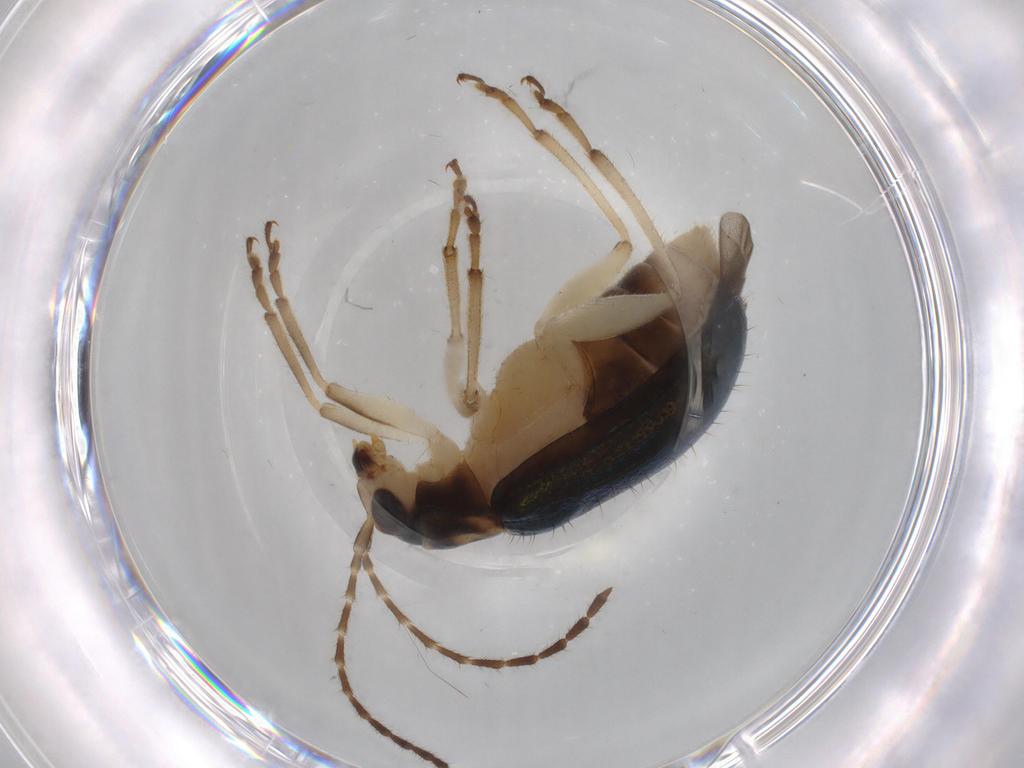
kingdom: Animalia
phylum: Arthropoda
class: Insecta
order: Coleoptera
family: Chrysomelidae
